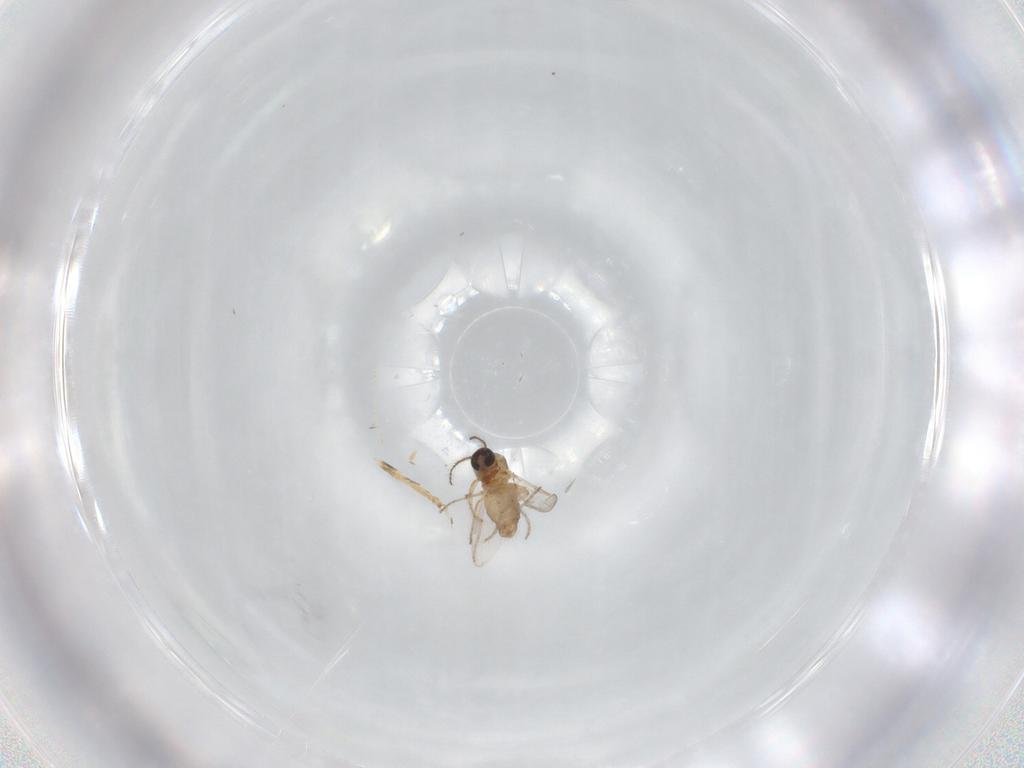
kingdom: Animalia
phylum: Arthropoda
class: Insecta
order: Diptera
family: Ceratopogonidae
